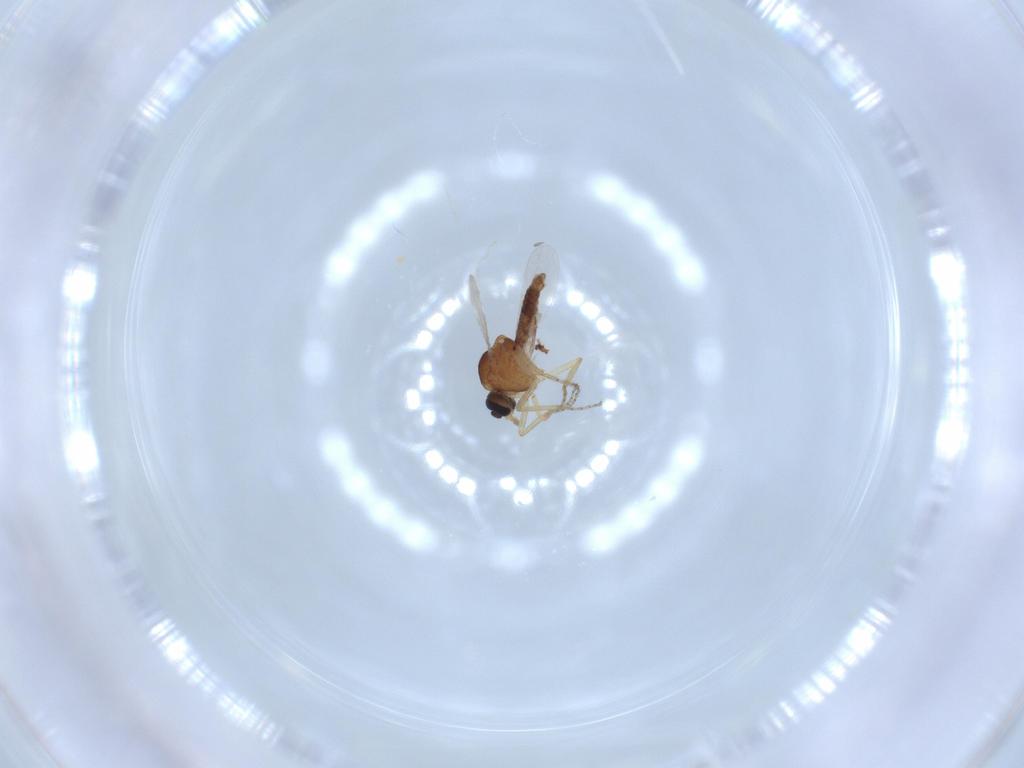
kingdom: Animalia
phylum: Arthropoda
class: Insecta
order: Diptera
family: Ceratopogonidae
